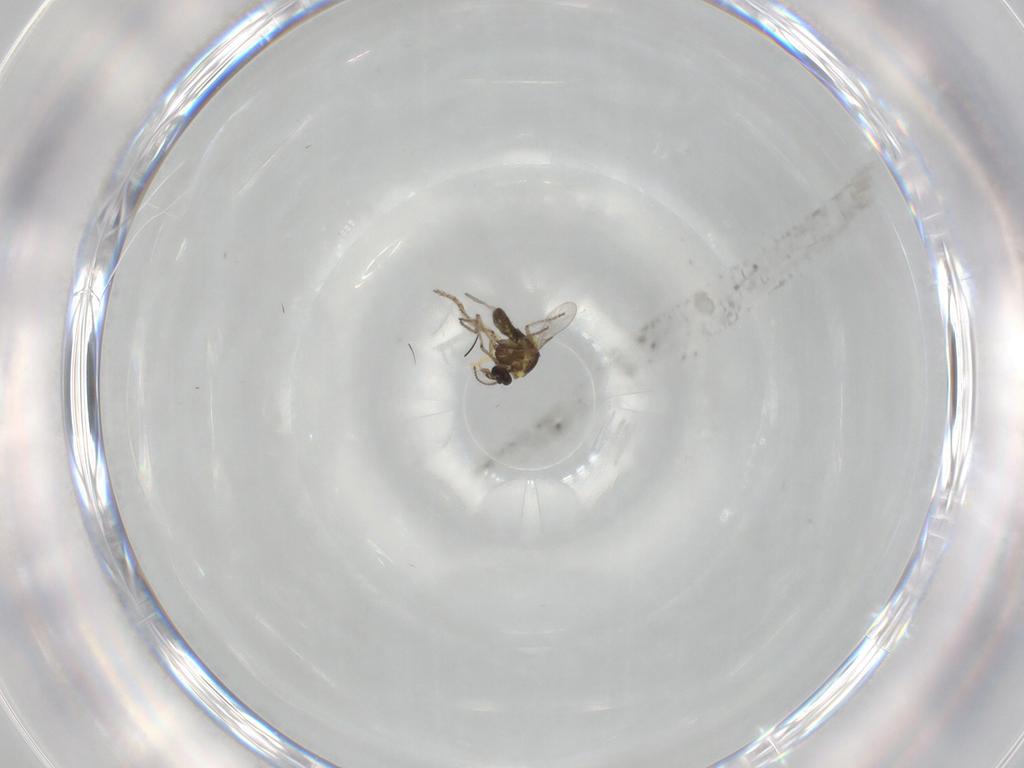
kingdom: Animalia
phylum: Arthropoda
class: Insecta
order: Diptera
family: Ceratopogonidae
